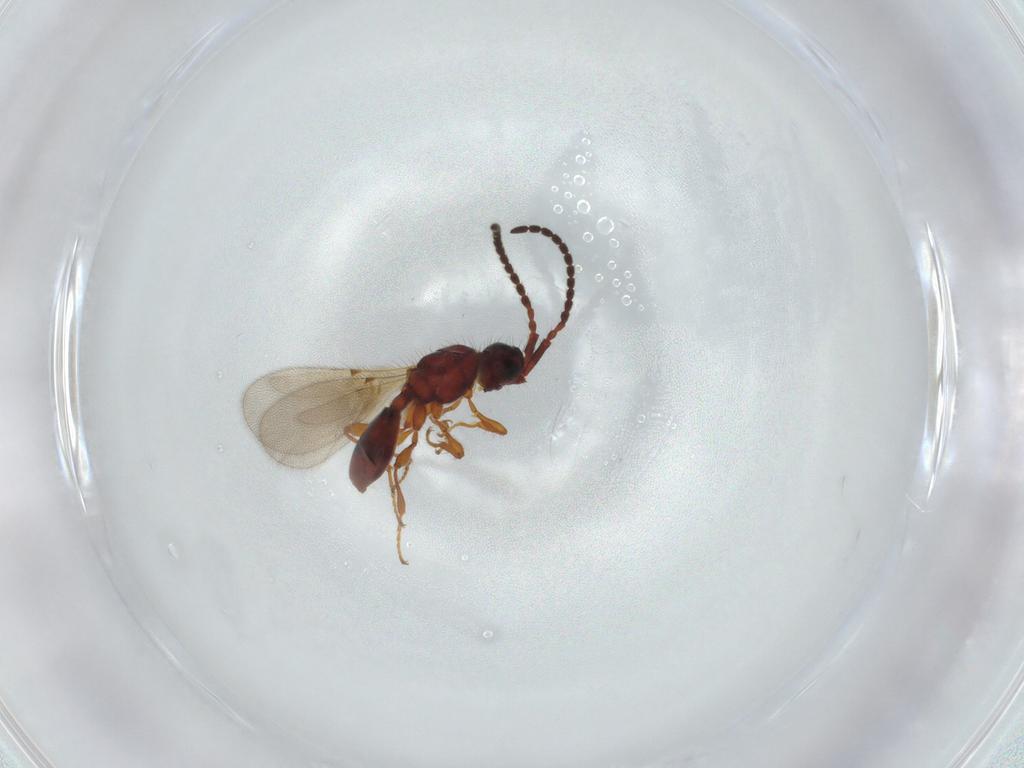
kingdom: Animalia
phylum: Arthropoda
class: Insecta
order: Hymenoptera
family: Diapriidae
